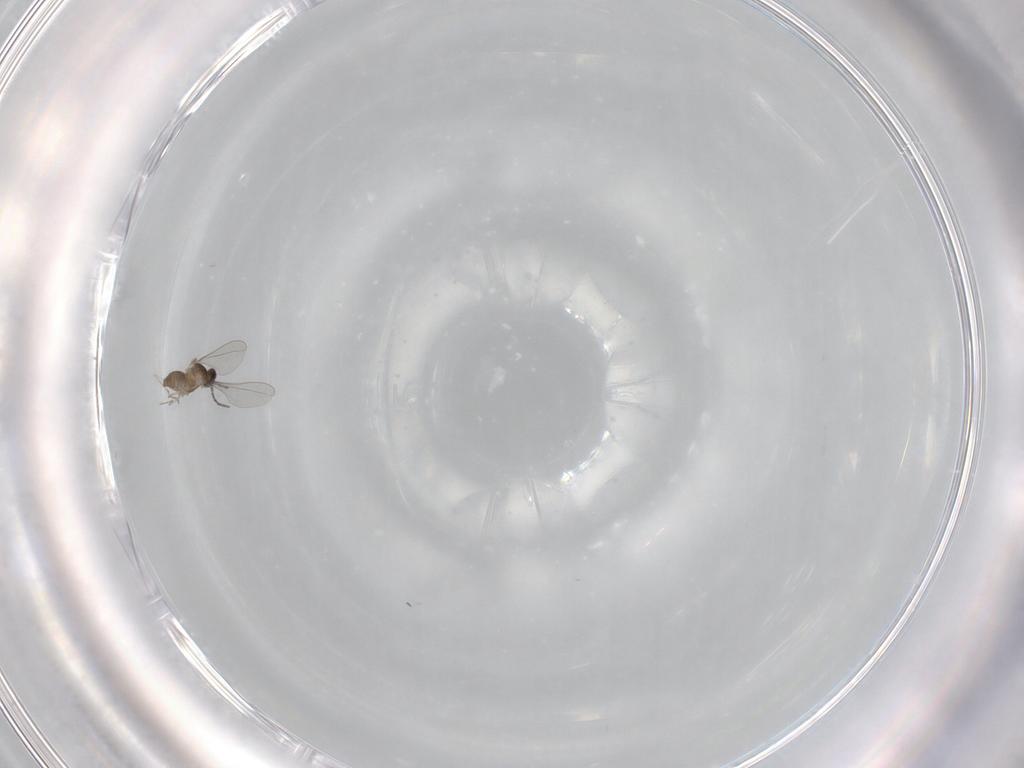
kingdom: Animalia
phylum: Arthropoda
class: Insecta
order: Diptera
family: Cecidomyiidae
